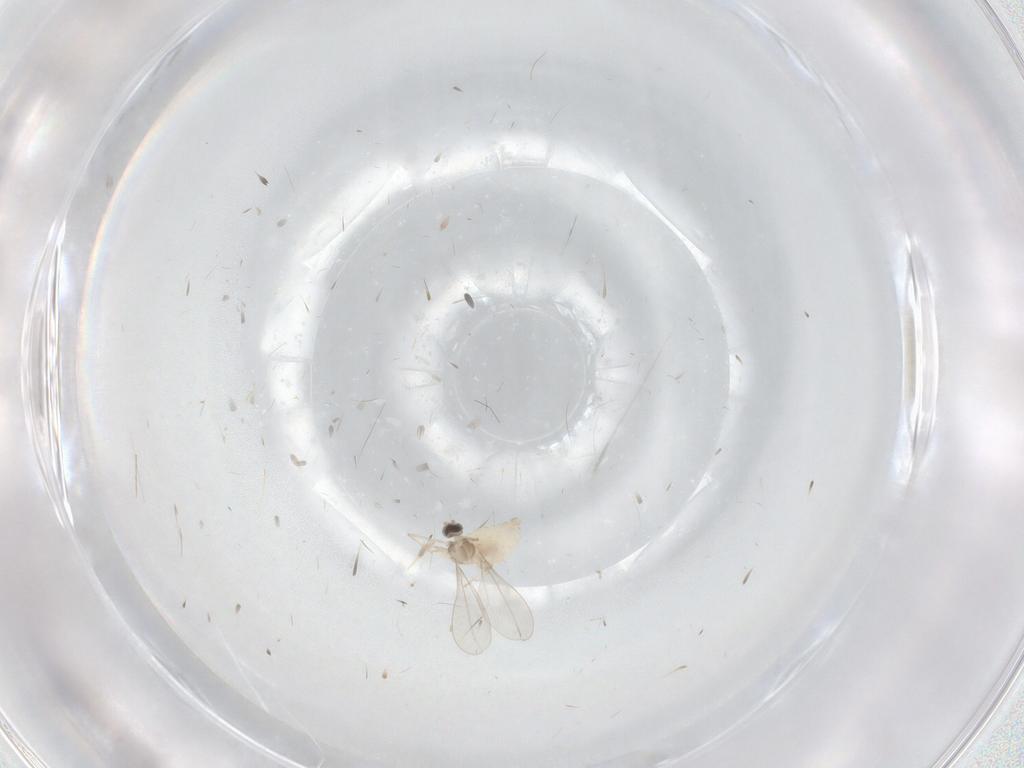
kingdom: Animalia
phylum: Arthropoda
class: Insecta
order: Diptera
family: Cecidomyiidae
